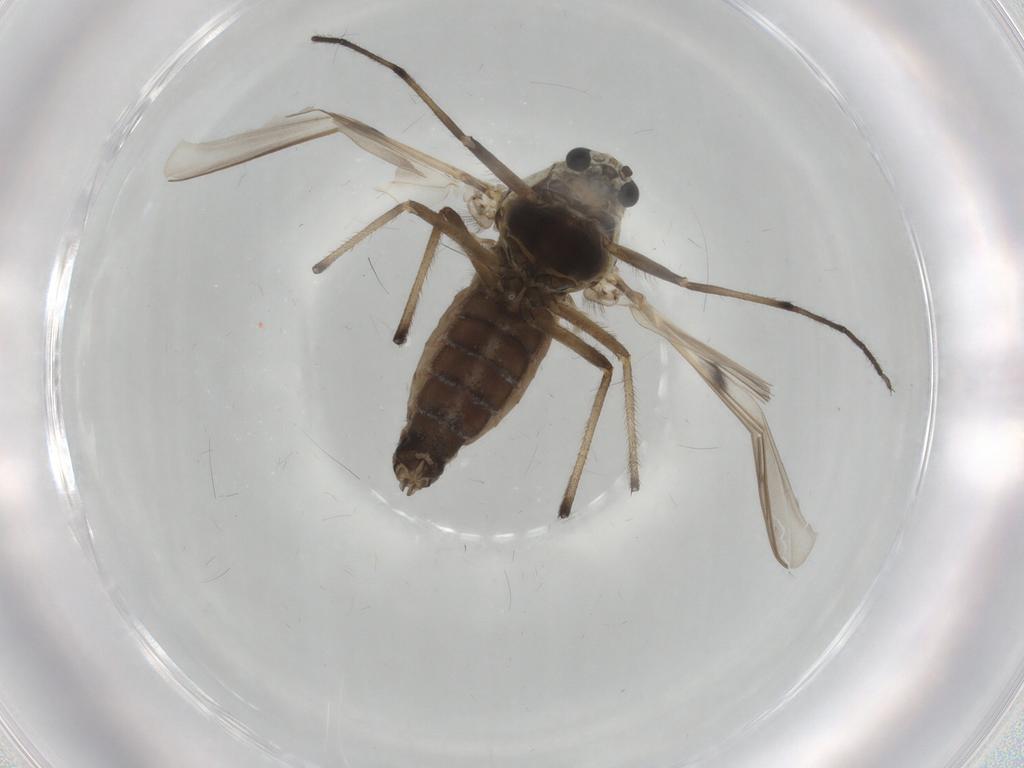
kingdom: Animalia
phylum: Arthropoda
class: Insecta
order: Diptera
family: Chironomidae
